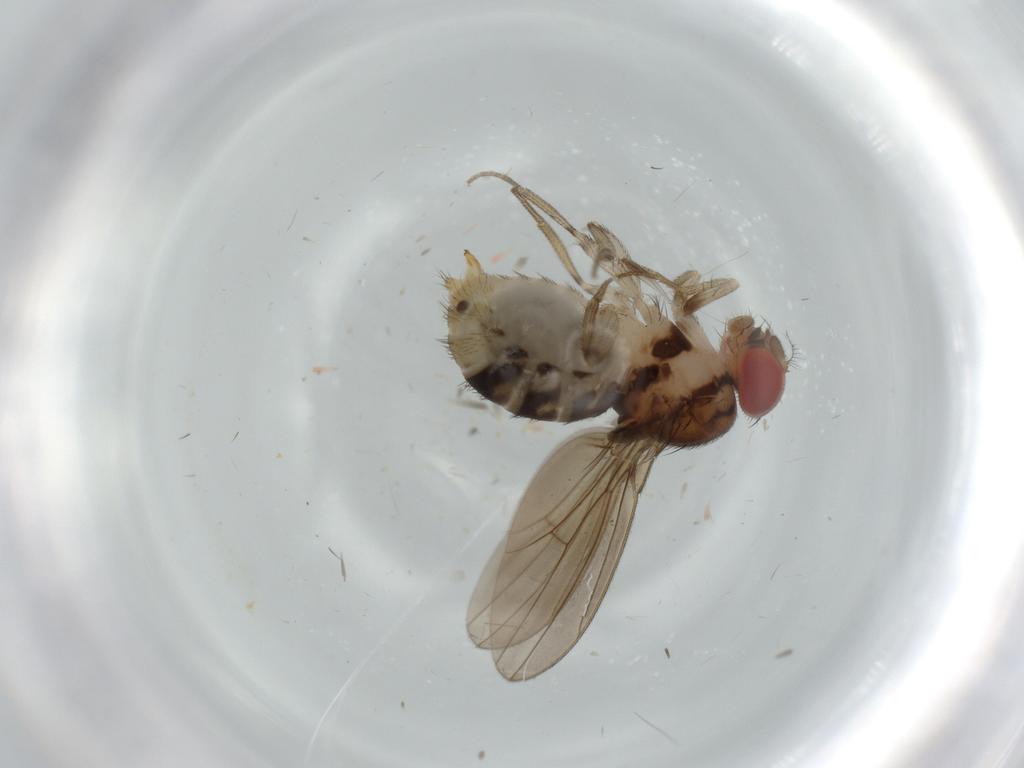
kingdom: Animalia
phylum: Arthropoda
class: Insecta
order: Diptera
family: Drosophilidae
